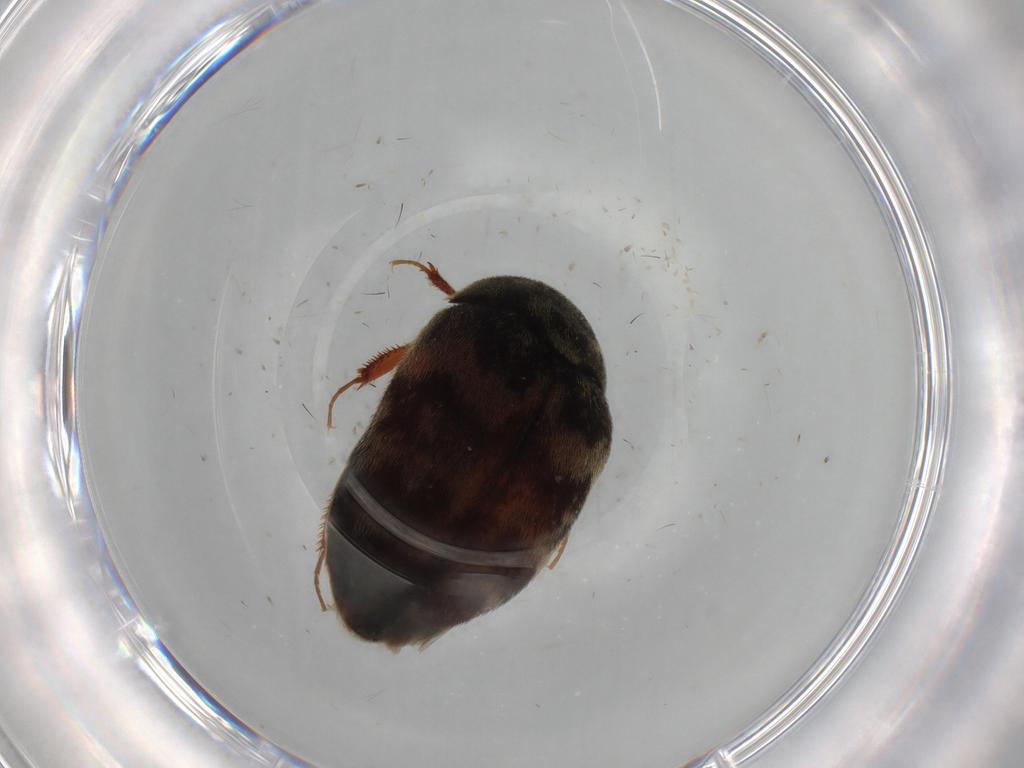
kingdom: Animalia
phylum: Arthropoda
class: Insecta
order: Coleoptera
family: Dermestidae
